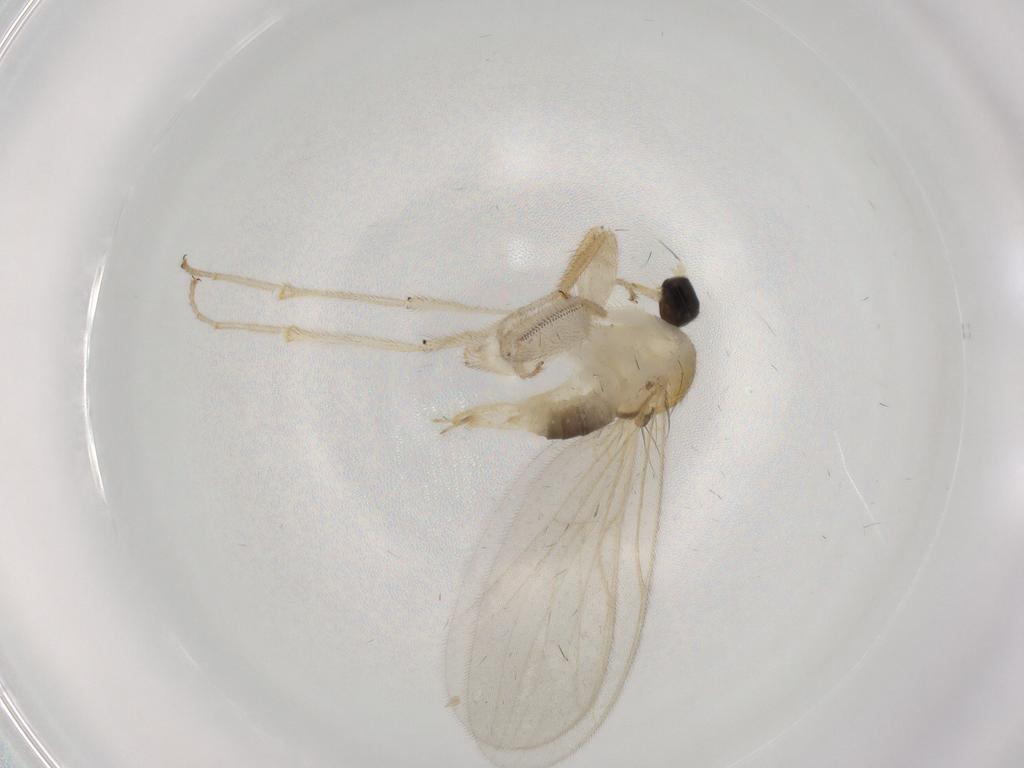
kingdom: Animalia
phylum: Arthropoda
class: Insecta
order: Diptera
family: Hybotidae
